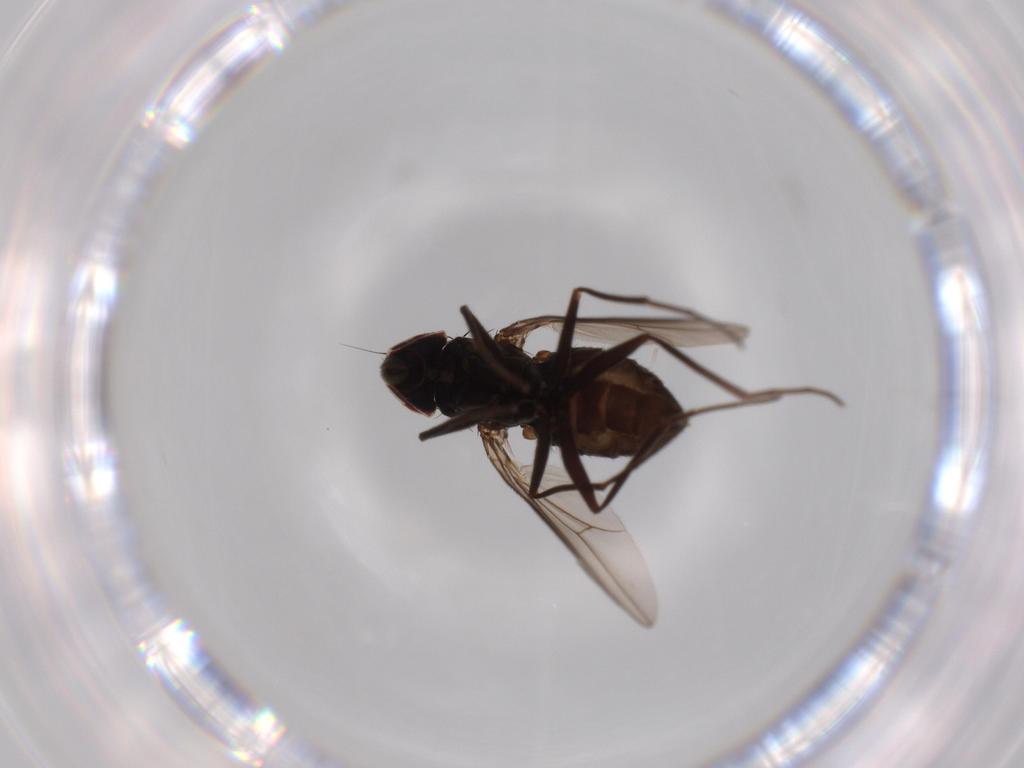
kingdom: Animalia
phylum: Arthropoda
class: Insecta
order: Diptera
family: Dolichopodidae
